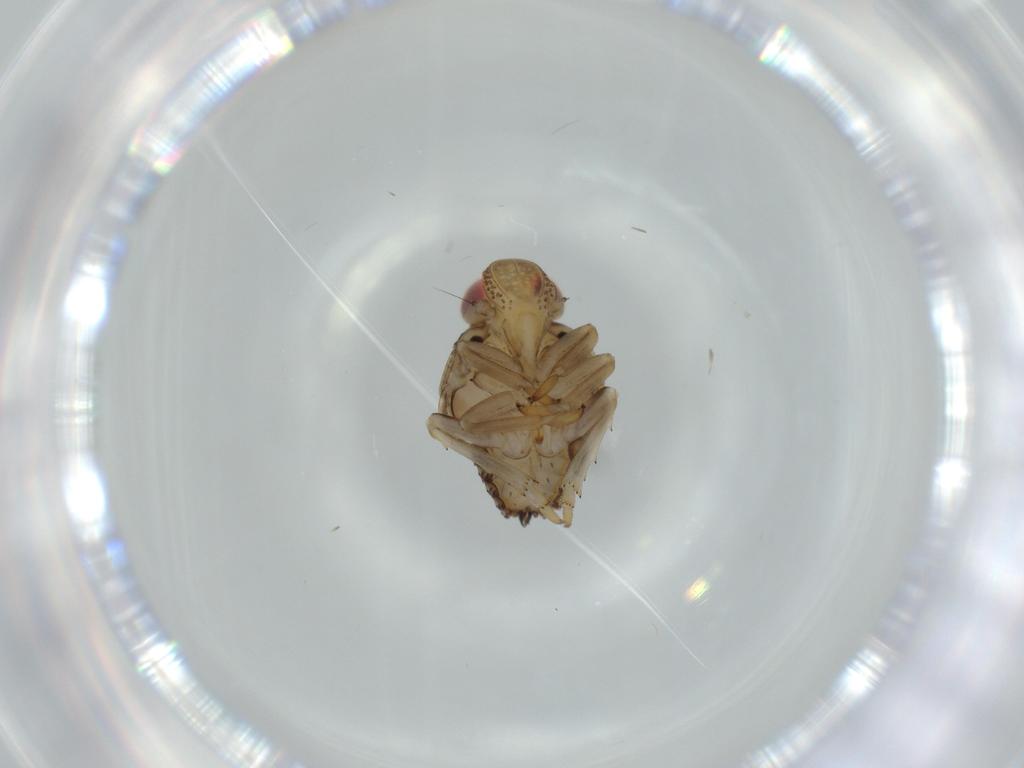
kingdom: Animalia
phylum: Arthropoda
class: Insecta
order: Hemiptera
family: Issidae
